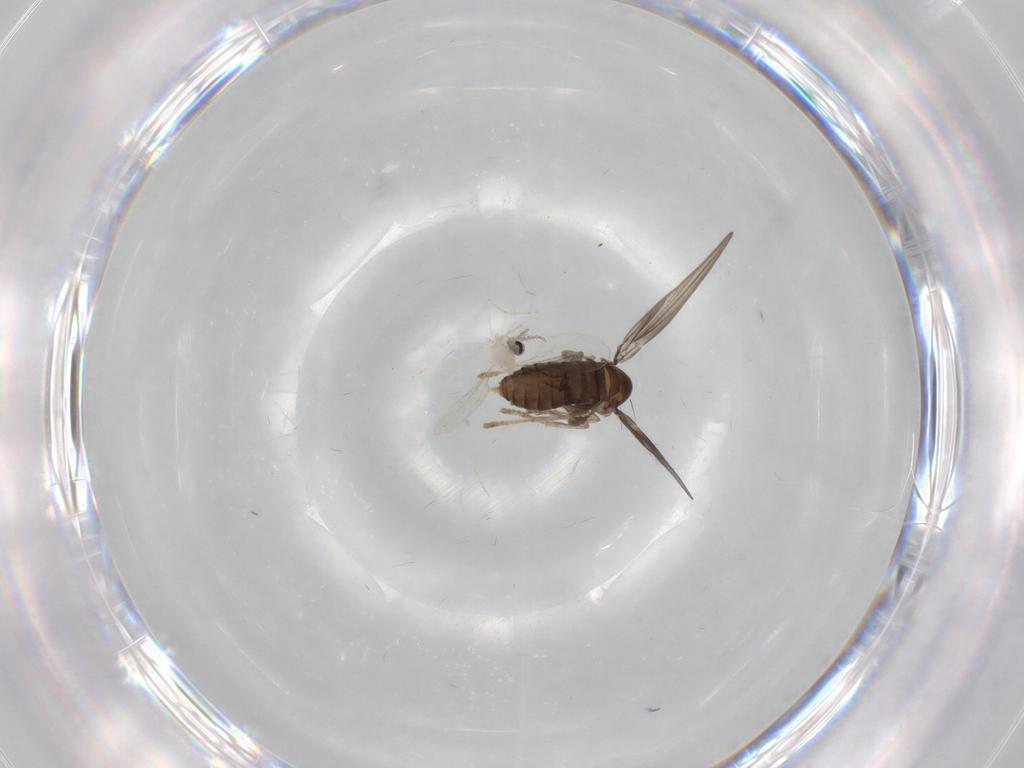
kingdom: Animalia
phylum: Arthropoda
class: Insecta
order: Diptera
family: Psychodidae
